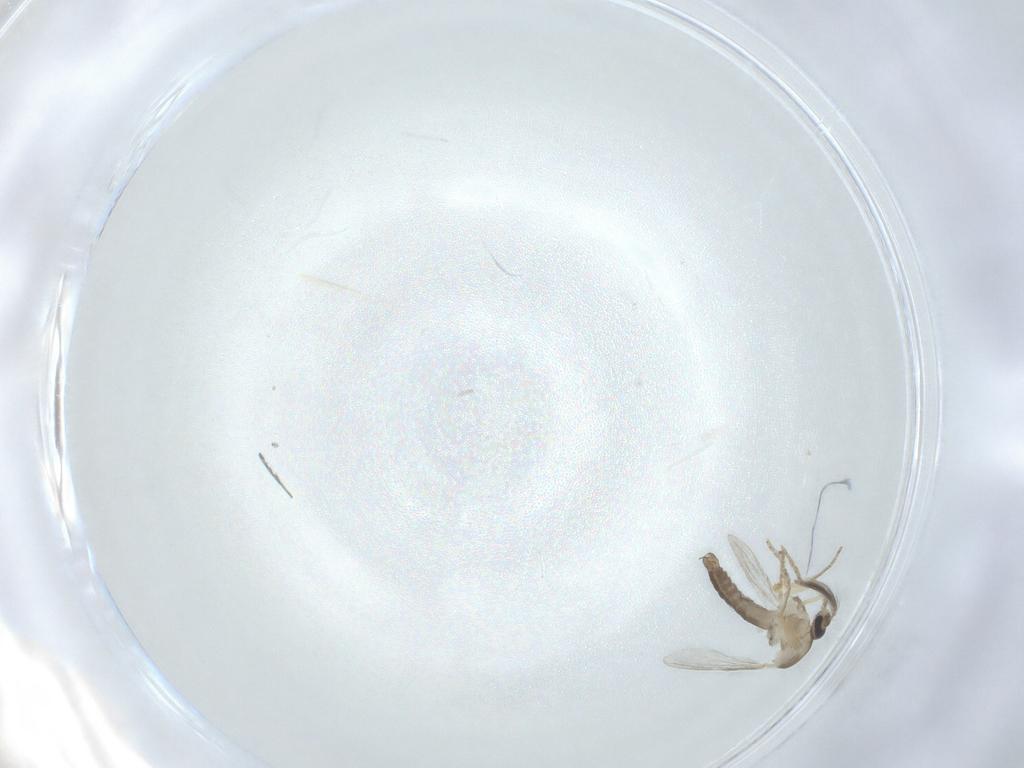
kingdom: Animalia
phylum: Arthropoda
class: Insecta
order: Diptera
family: Ceratopogonidae
